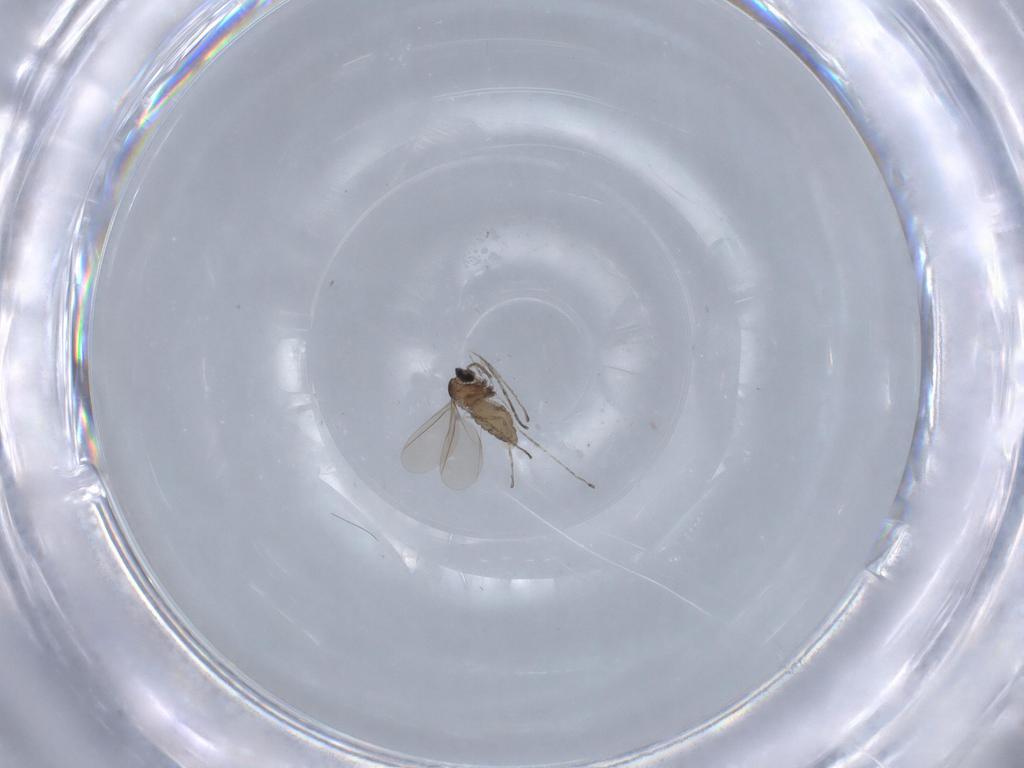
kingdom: Animalia
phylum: Arthropoda
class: Insecta
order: Diptera
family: Cecidomyiidae
